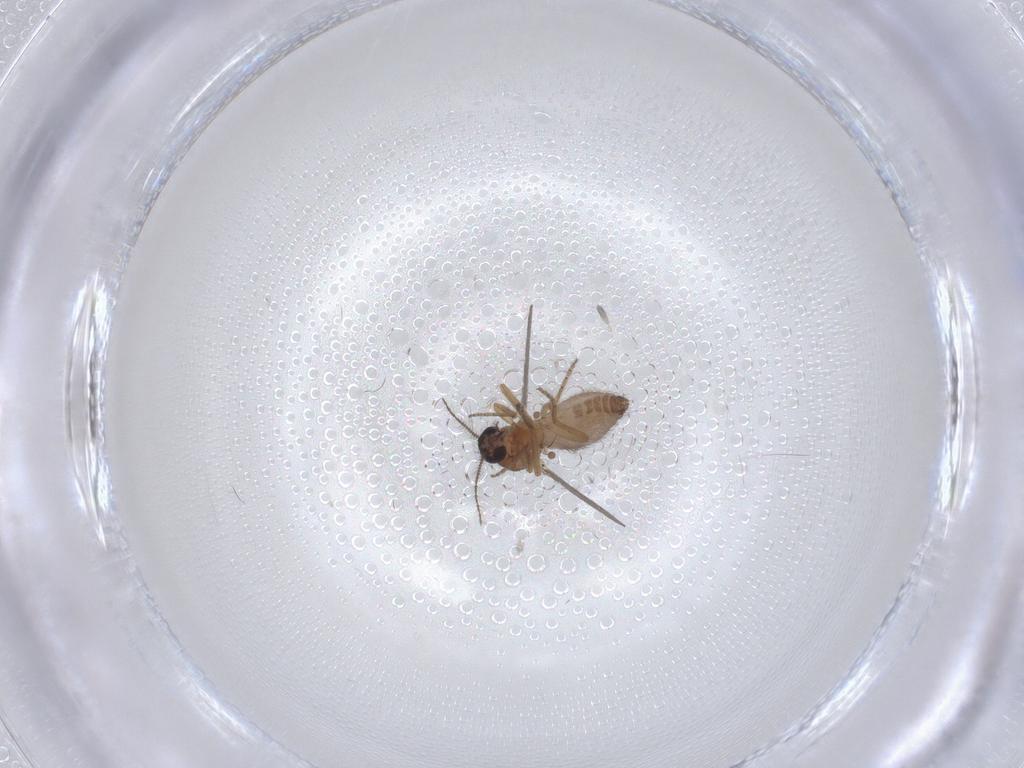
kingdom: Animalia
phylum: Arthropoda
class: Insecta
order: Diptera
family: Ceratopogonidae
